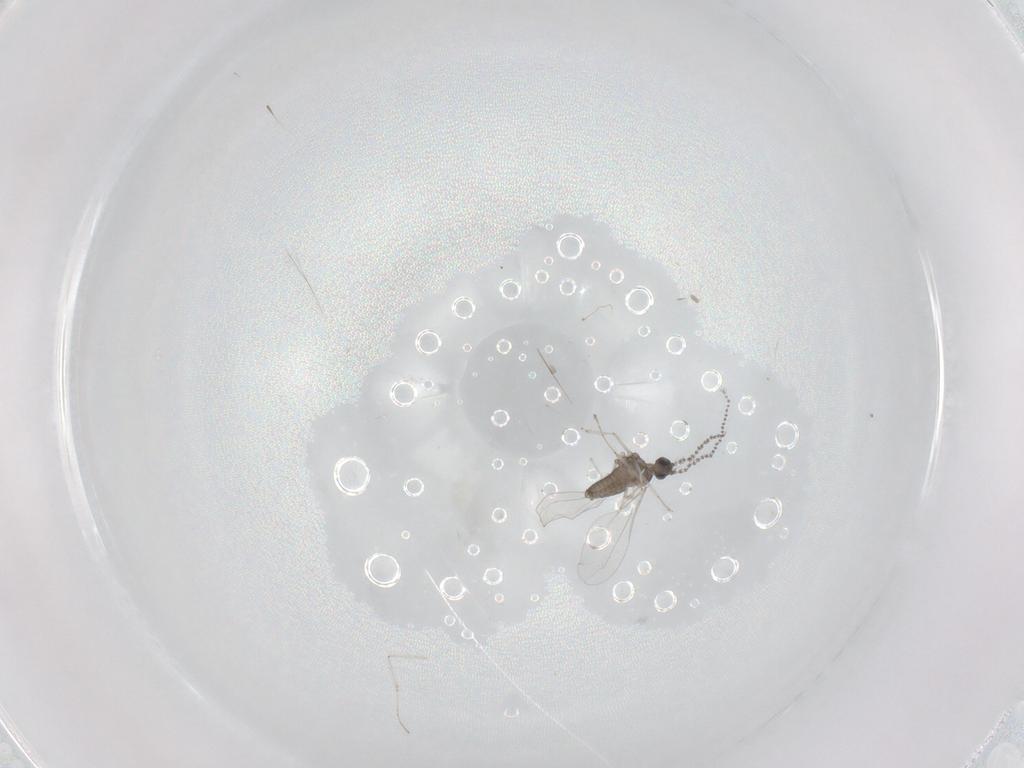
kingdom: Animalia
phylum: Arthropoda
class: Insecta
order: Diptera
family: Cecidomyiidae
